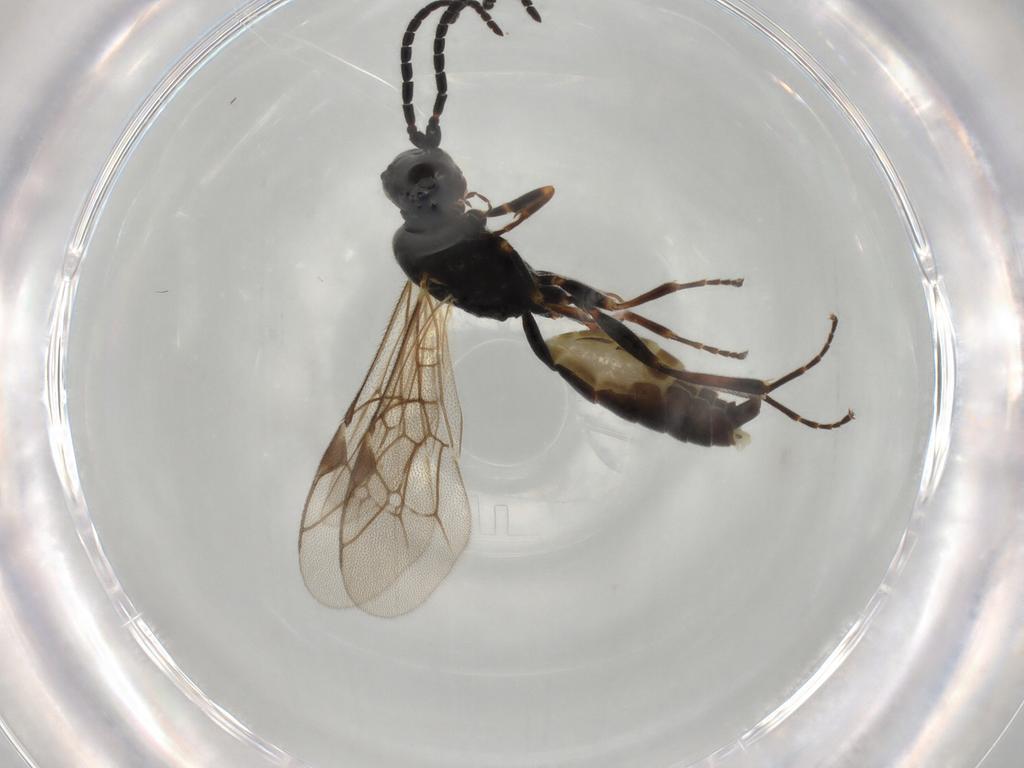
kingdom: Animalia
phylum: Arthropoda
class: Insecta
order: Hymenoptera
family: Ichneumonidae
